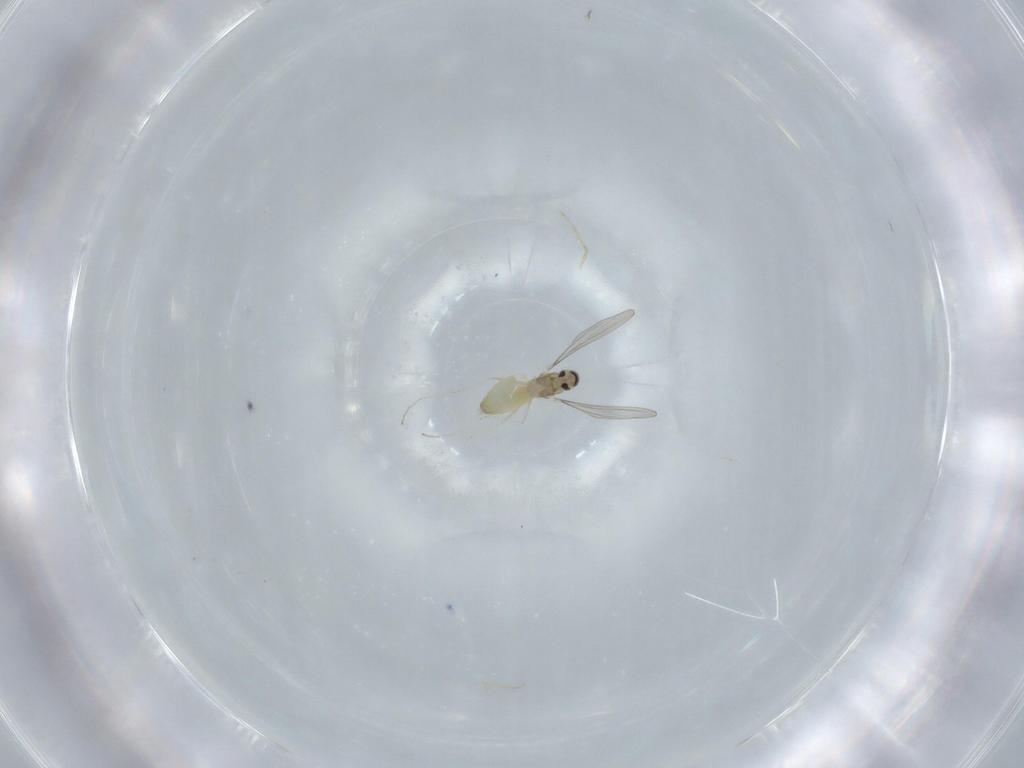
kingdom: Animalia
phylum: Arthropoda
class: Insecta
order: Diptera
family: Cecidomyiidae
